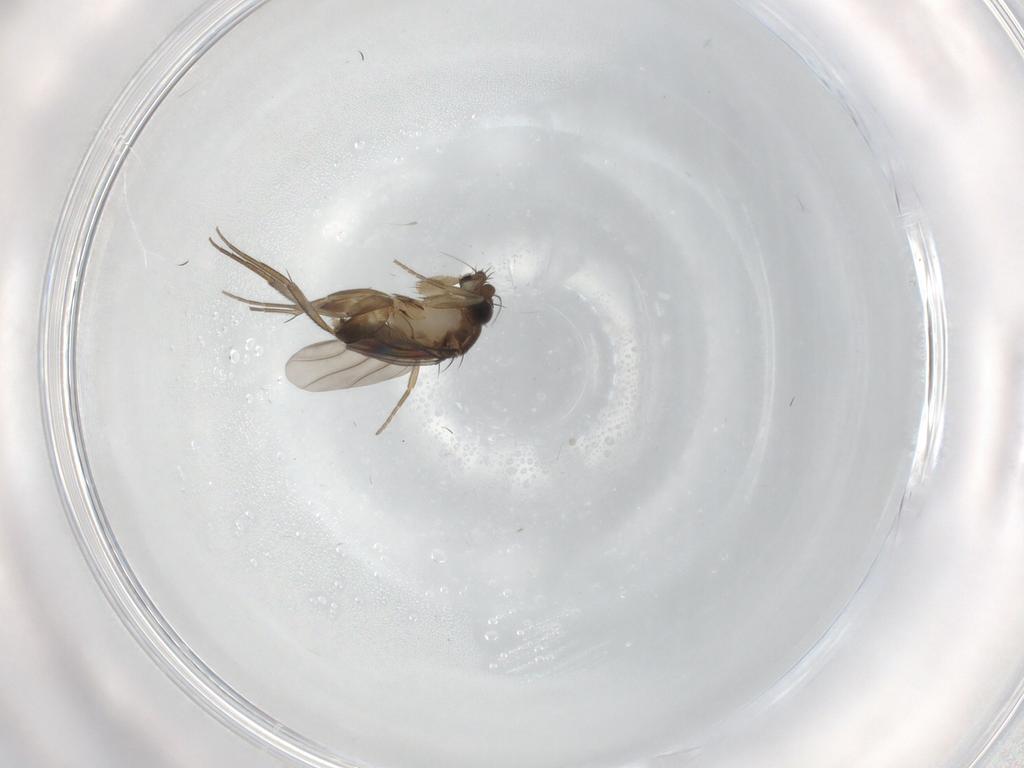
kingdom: Animalia
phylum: Arthropoda
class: Insecta
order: Diptera
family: Phoridae
